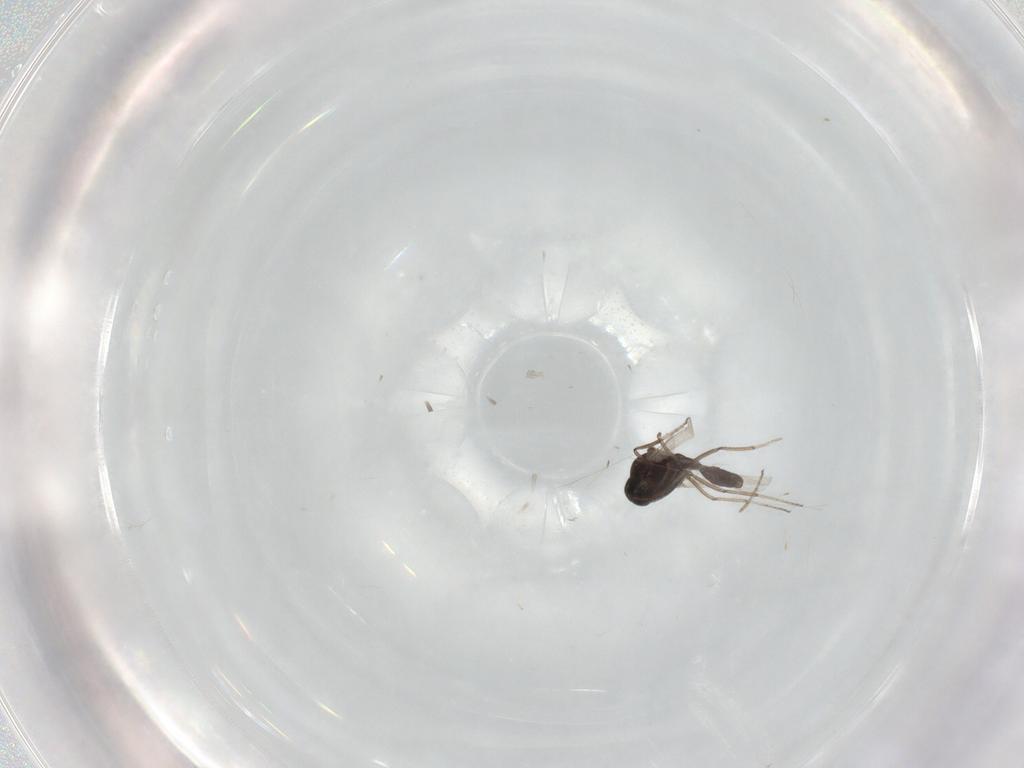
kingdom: Animalia
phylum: Arthropoda
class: Insecta
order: Diptera
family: Ceratopogonidae
